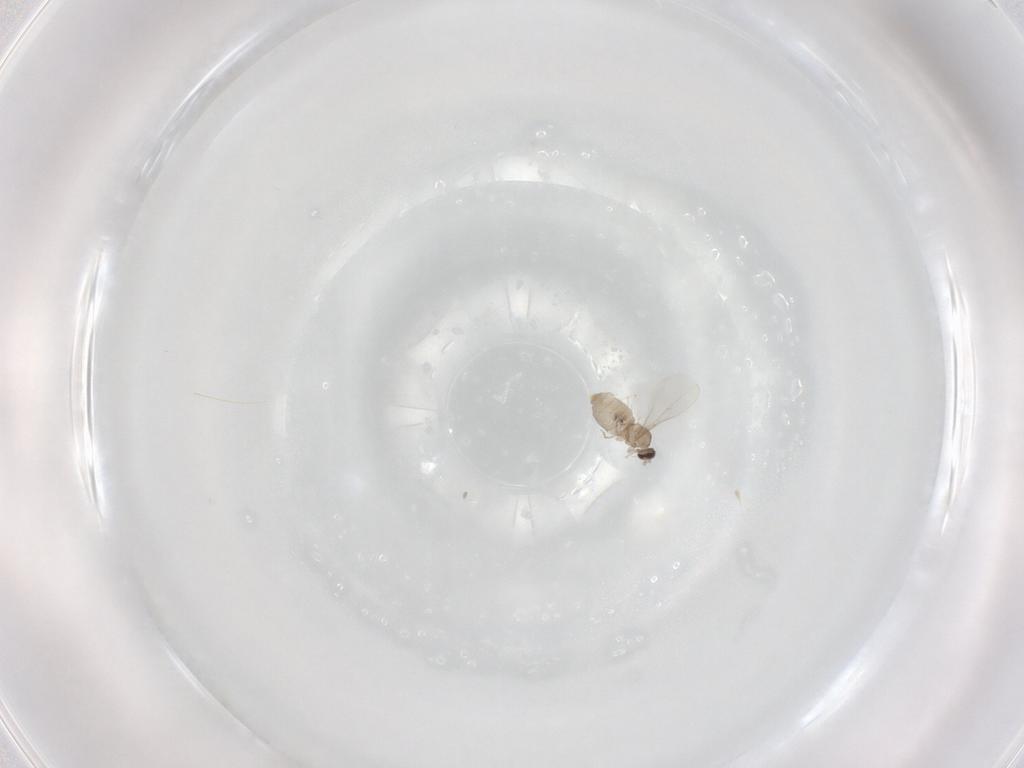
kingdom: Animalia
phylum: Arthropoda
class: Insecta
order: Diptera
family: Cecidomyiidae
